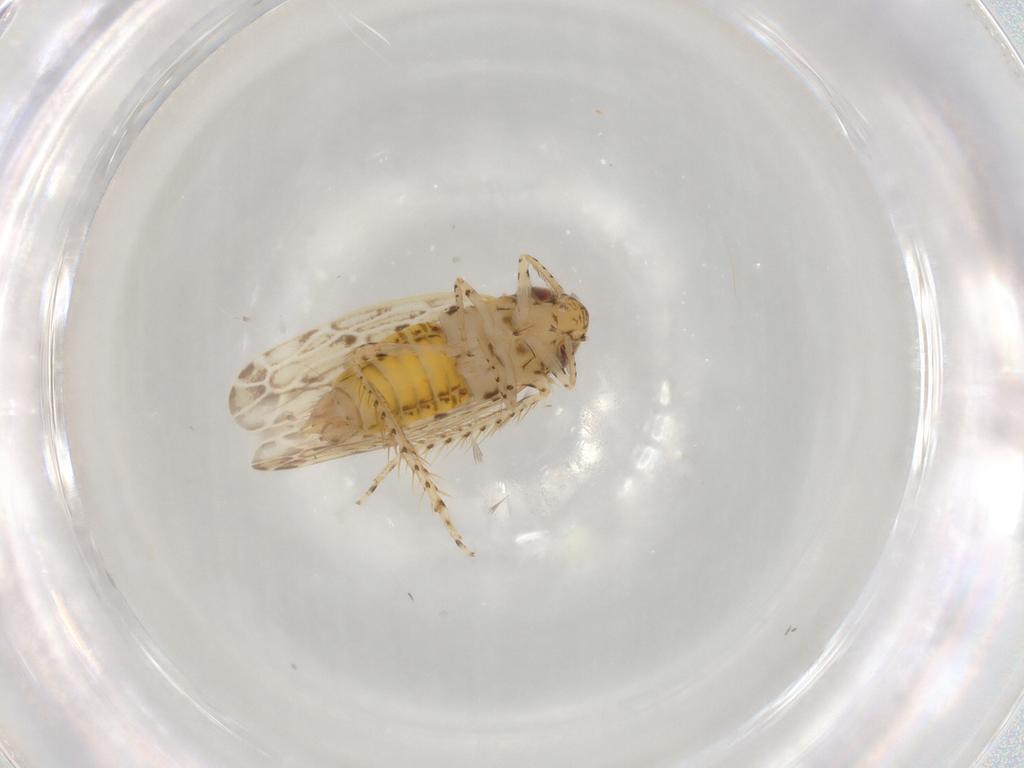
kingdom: Animalia
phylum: Arthropoda
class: Insecta
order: Hemiptera
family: Cicadellidae
